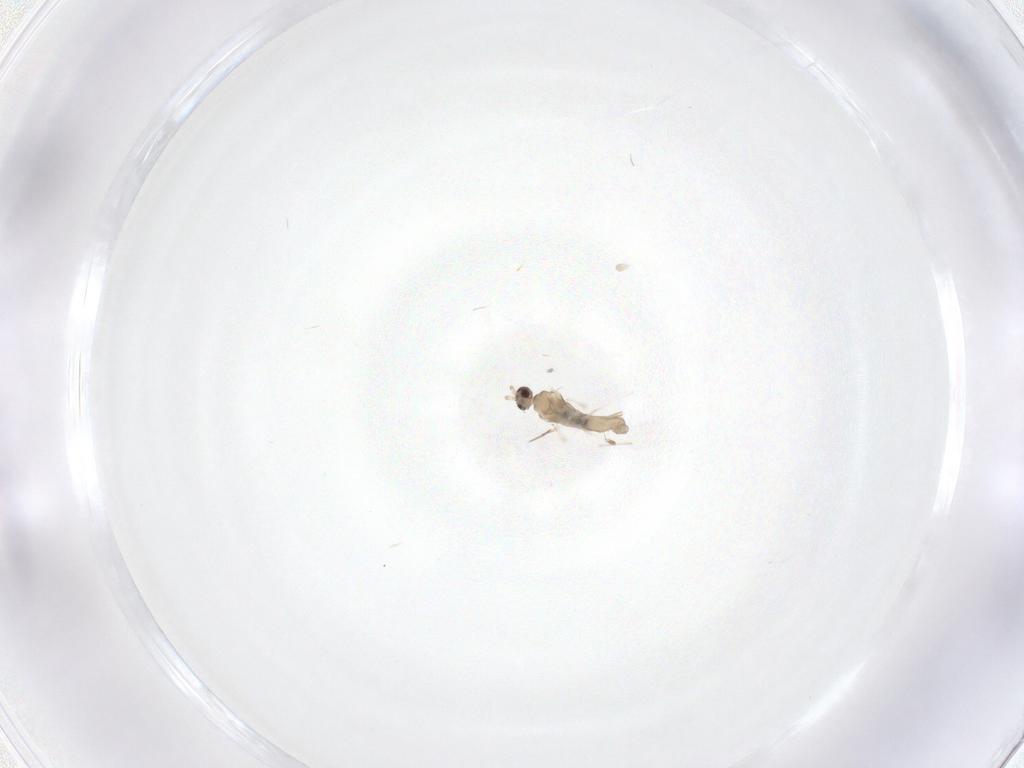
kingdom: Animalia
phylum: Arthropoda
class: Insecta
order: Diptera
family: Cecidomyiidae
